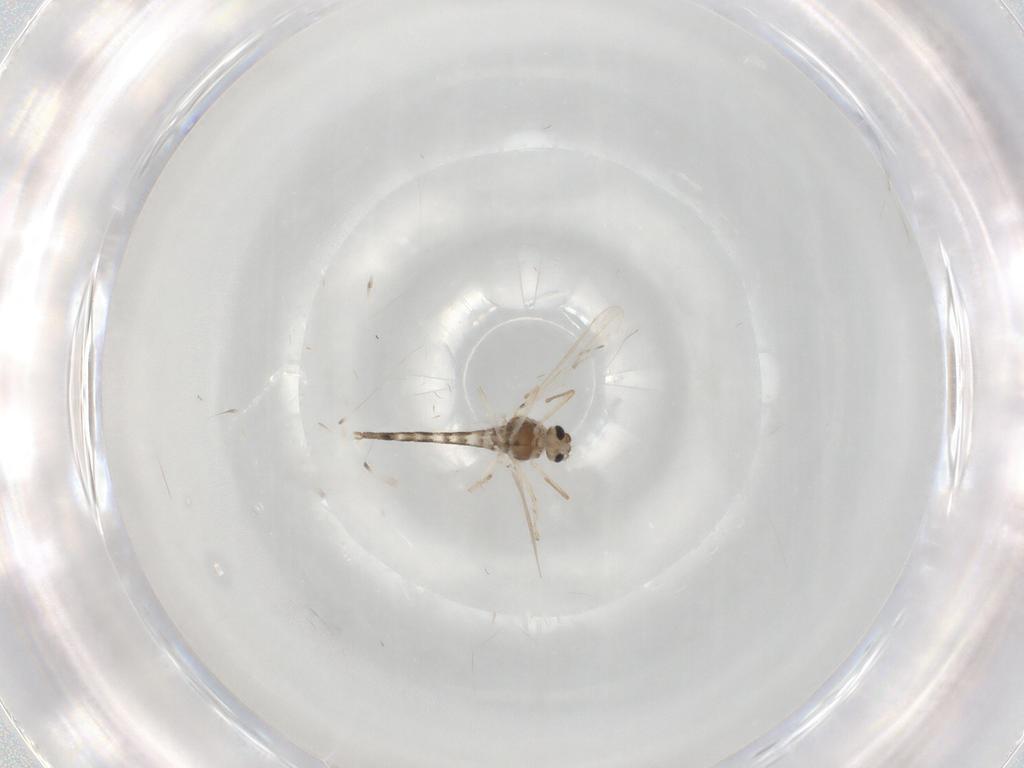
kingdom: Animalia
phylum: Arthropoda
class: Insecta
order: Diptera
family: Chironomidae
